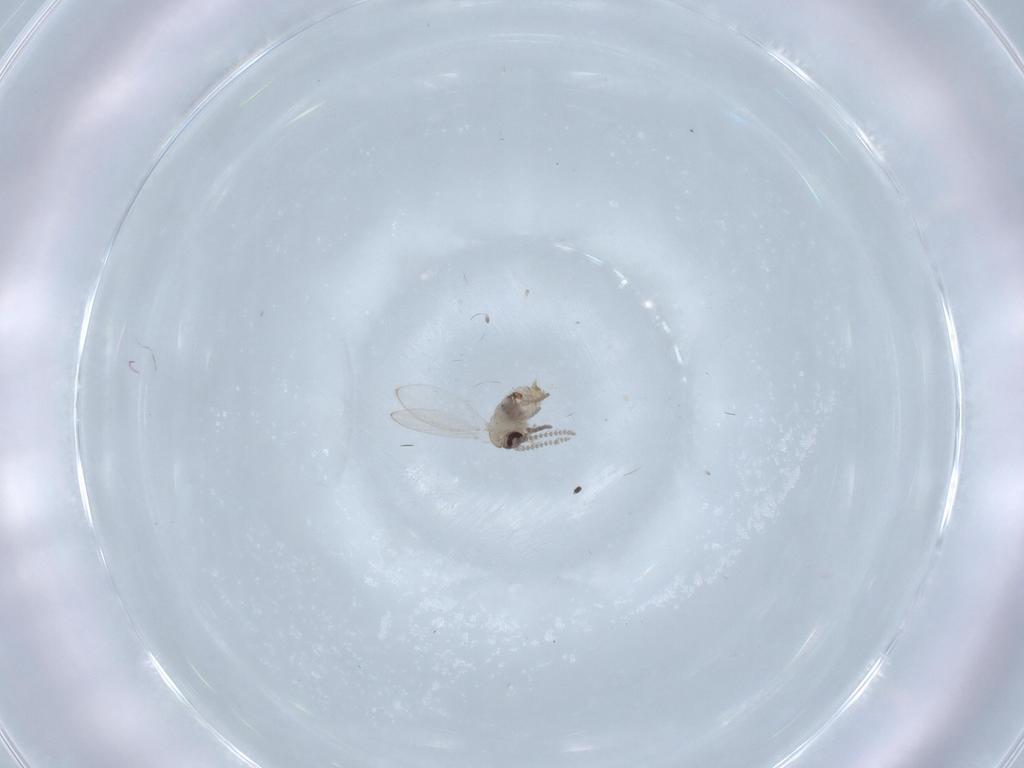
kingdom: Animalia
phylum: Arthropoda
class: Insecta
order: Diptera
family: Psychodidae
